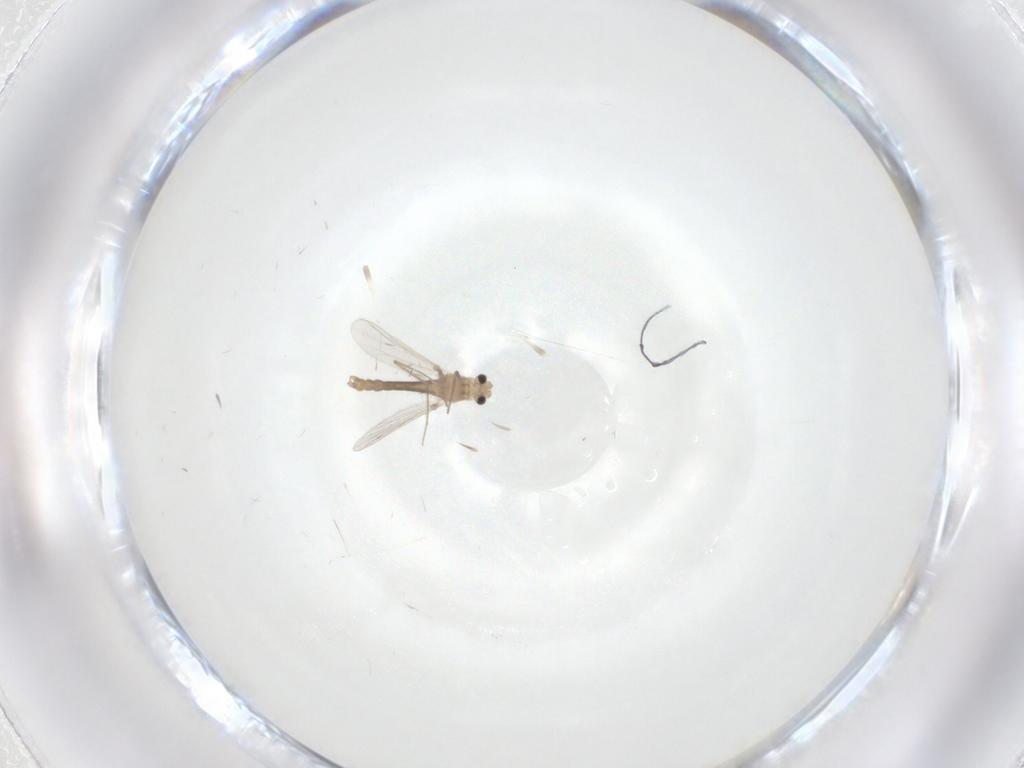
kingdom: Animalia
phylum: Arthropoda
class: Insecta
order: Diptera
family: Chironomidae
